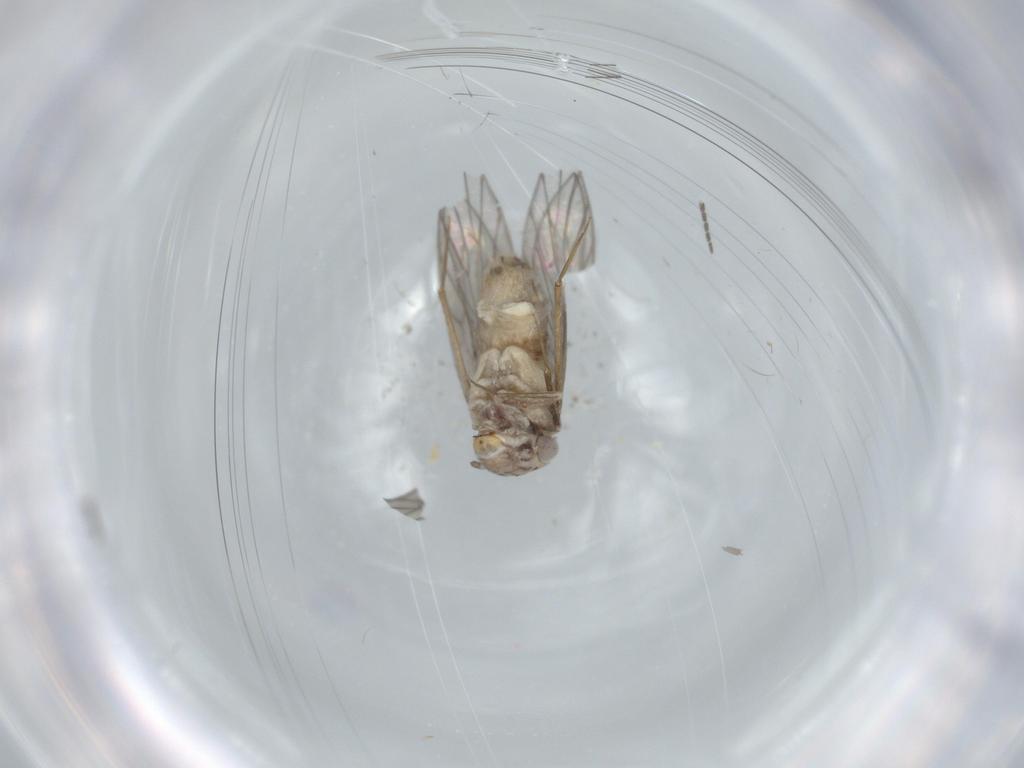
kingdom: Animalia
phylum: Arthropoda
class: Insecta
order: Psocodea
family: Lepidopsocidae
